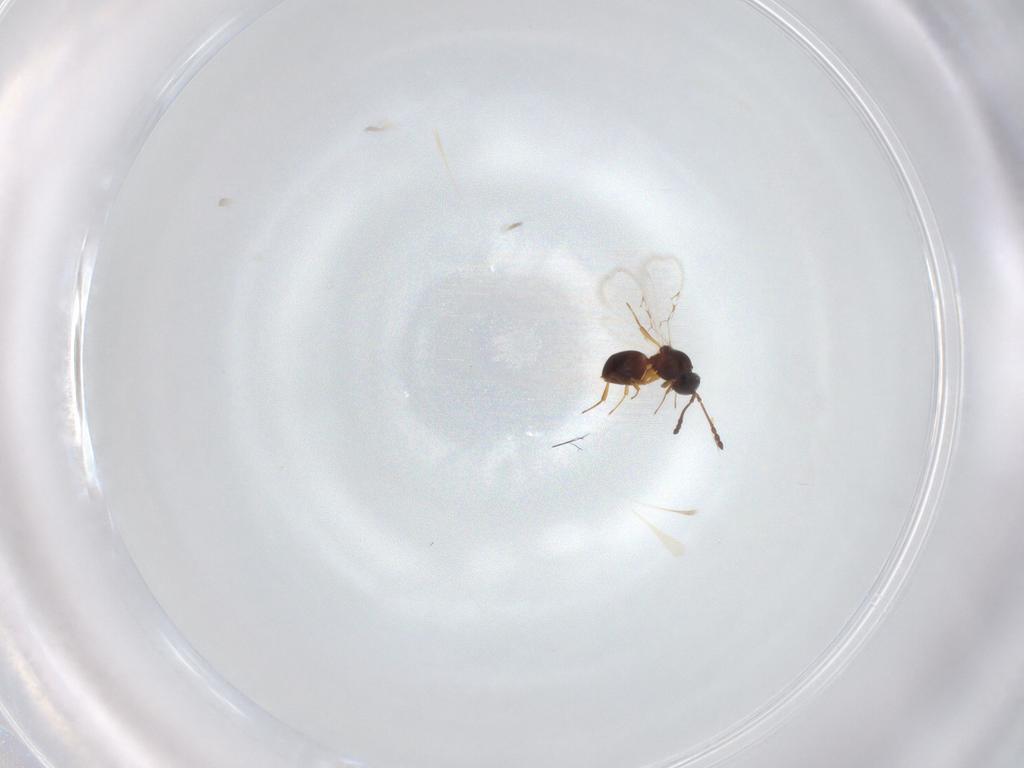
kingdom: Animalia
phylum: Arthropoda
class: Insecta
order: Hymenoptera
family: Figitidae
